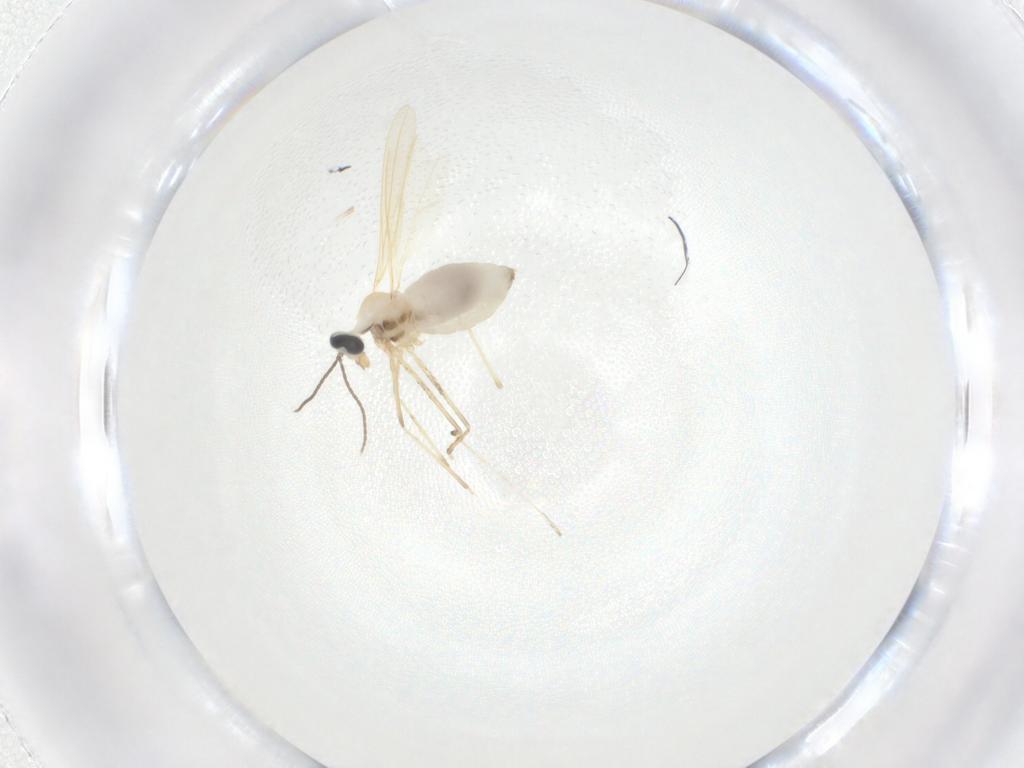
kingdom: Animalia
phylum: Arthropoda
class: Insecta
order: Diptera
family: Cecidomyiidae
